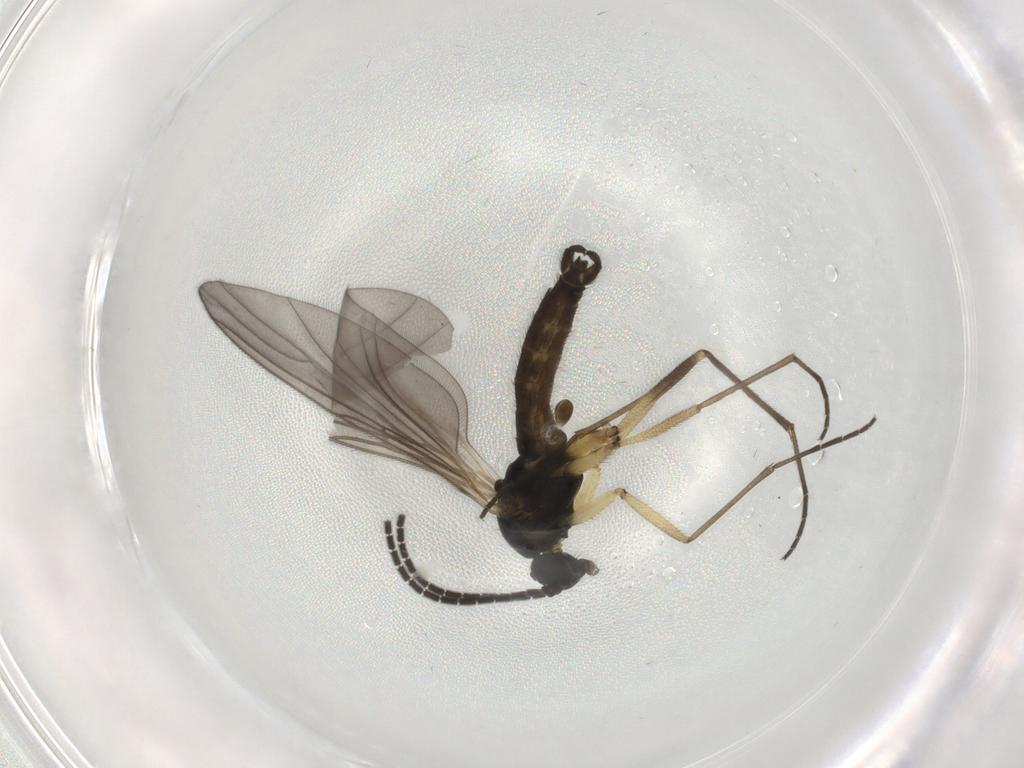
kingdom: Animalia
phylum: Arthropoda
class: Insecta
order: Diptera
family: Sciaridae
